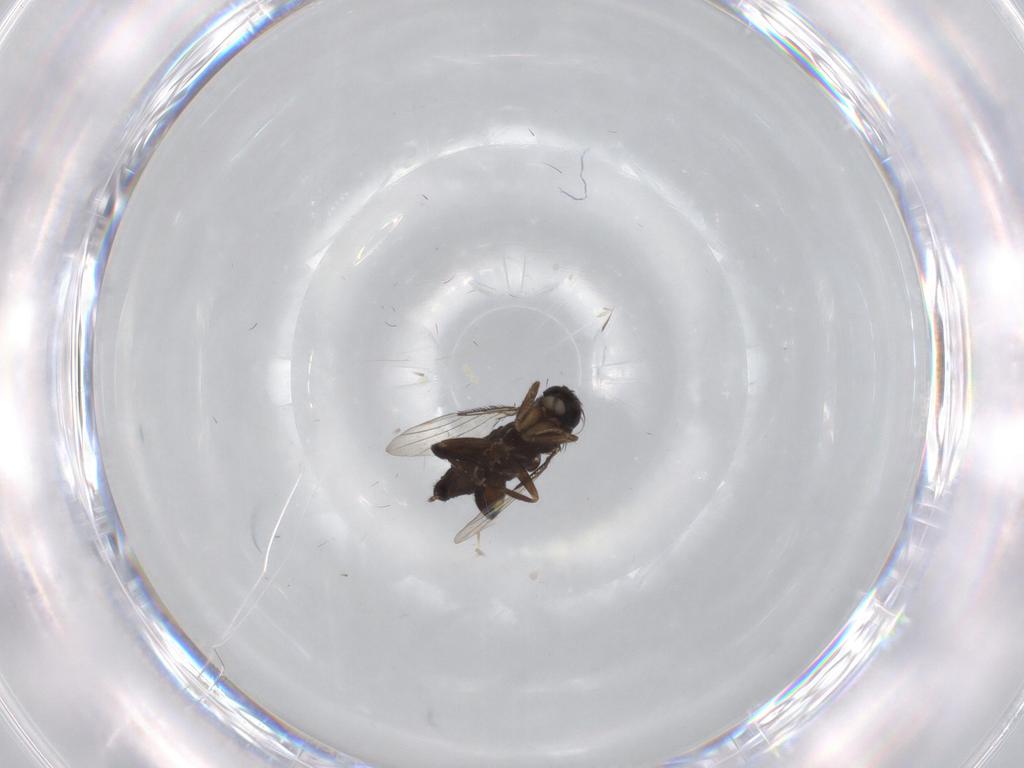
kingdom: Animalia
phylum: Arthropoda
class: Insecta
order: Diptera
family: Phoridae
